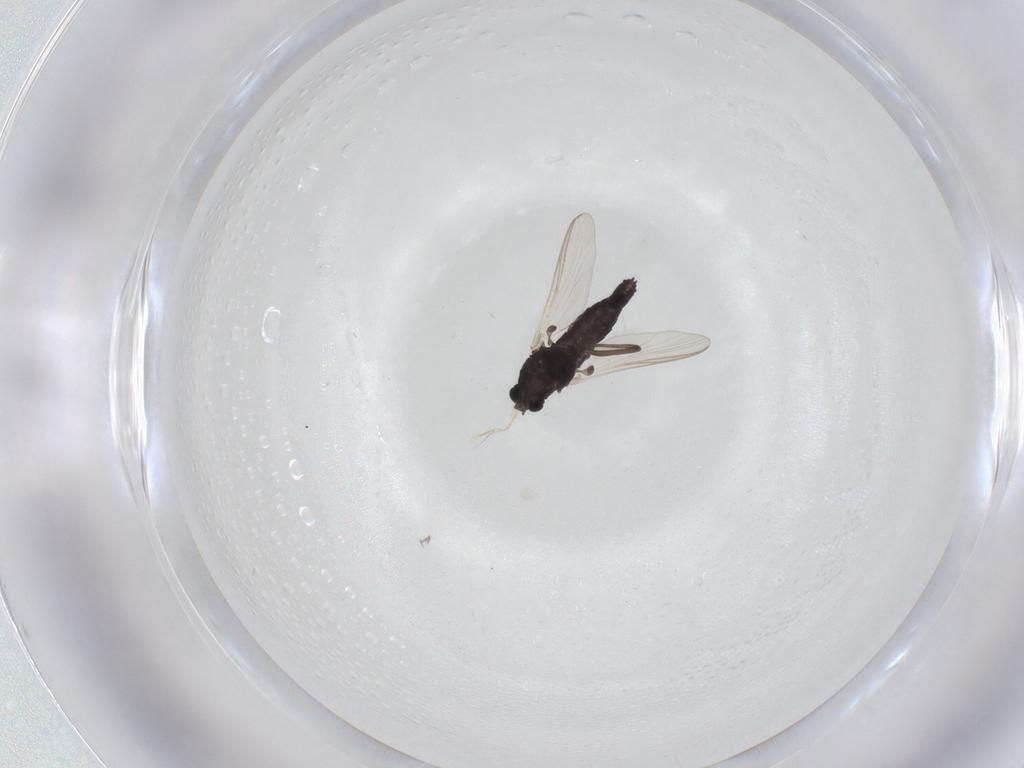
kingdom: Animalia
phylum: Arthropoda
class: Insecta
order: Diptera
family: Chironomidae
